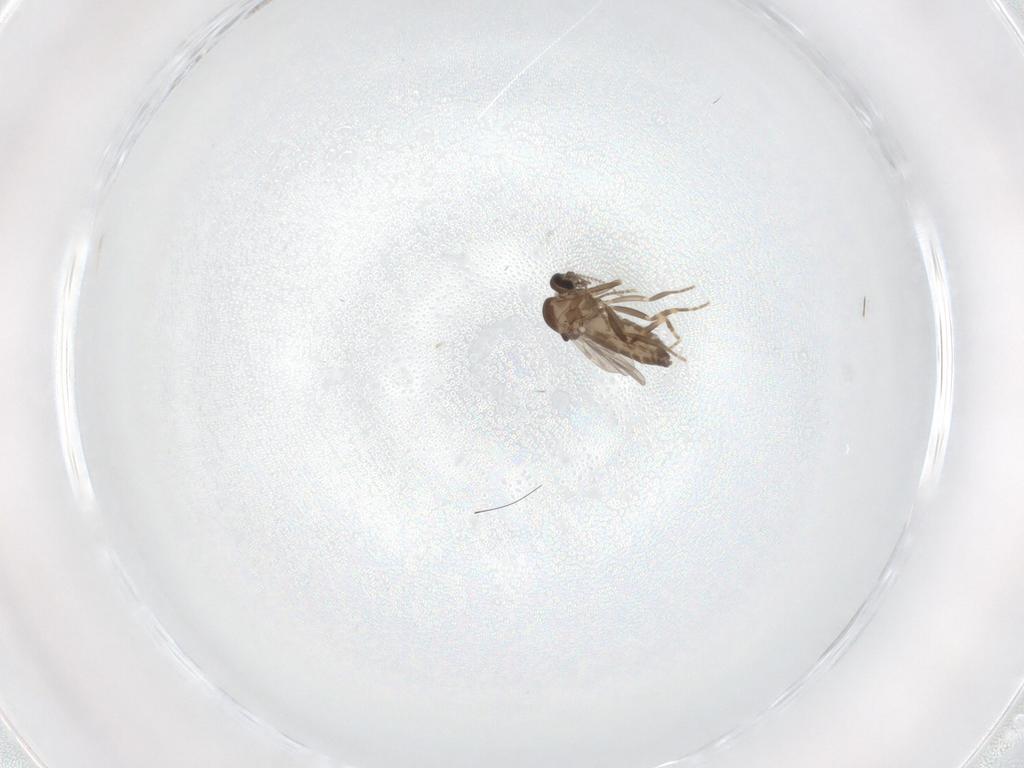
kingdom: Animalia
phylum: Arthropoda
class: Insecta
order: Diptera
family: Ceratopogonidae
